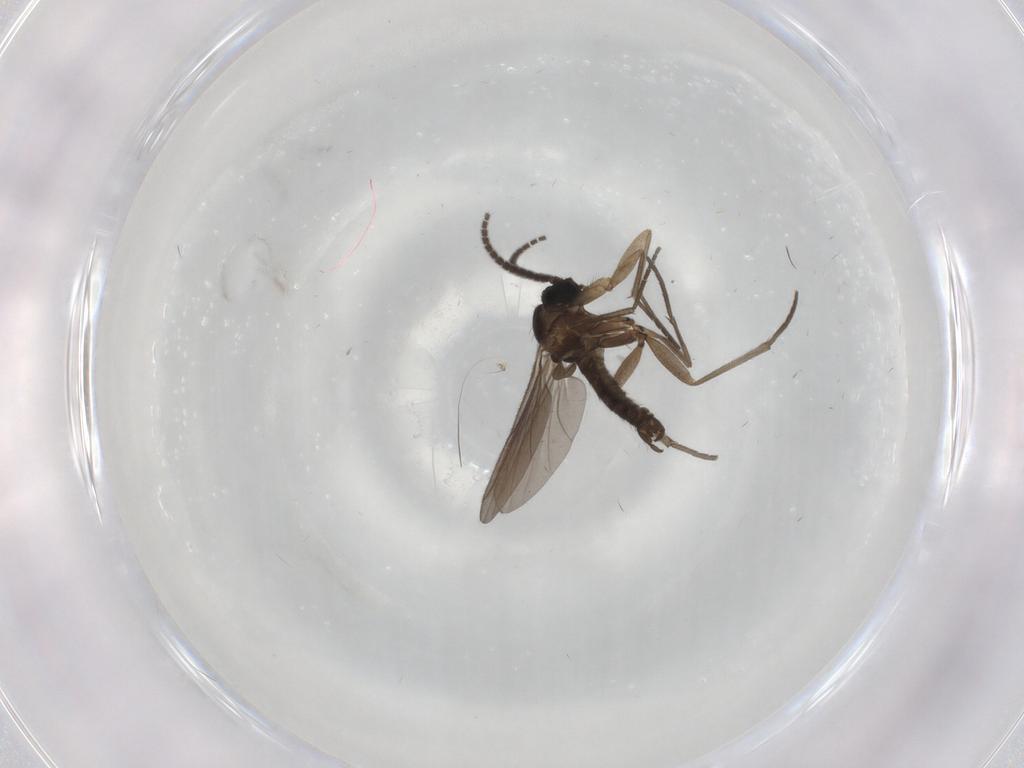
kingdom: Animalia
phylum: Arthropoda
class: Insecta
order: Diptera
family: Sciaridae
